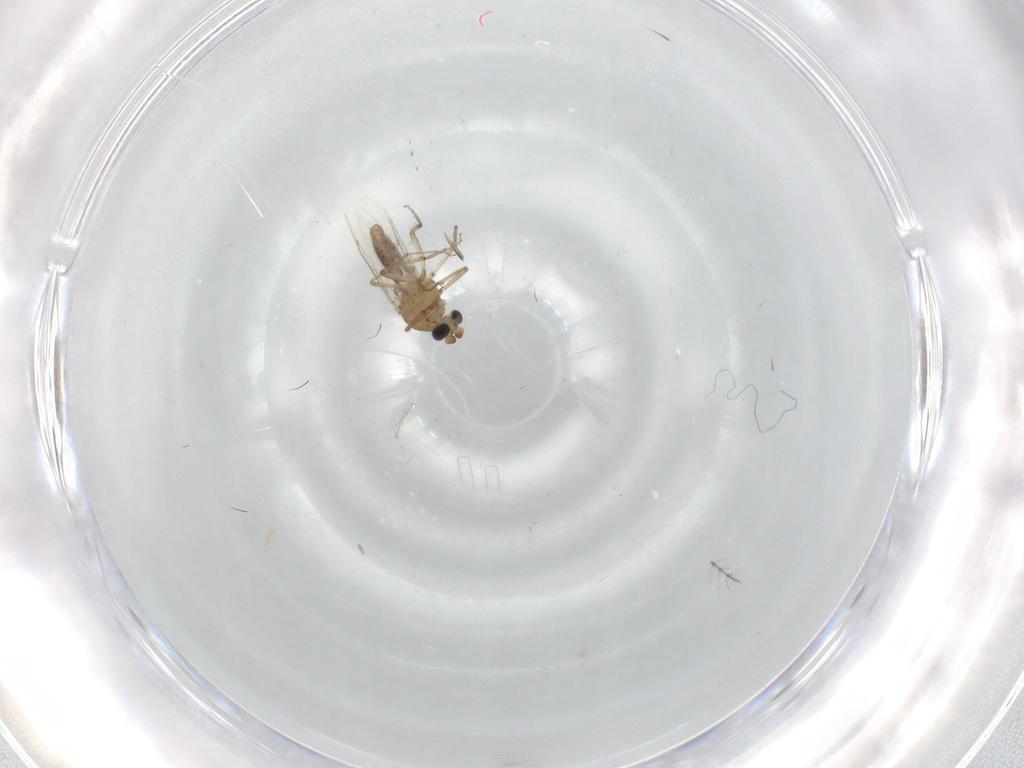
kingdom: Animalia
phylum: Arthropoda
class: Insecta
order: Diptera
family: Chironomidae
